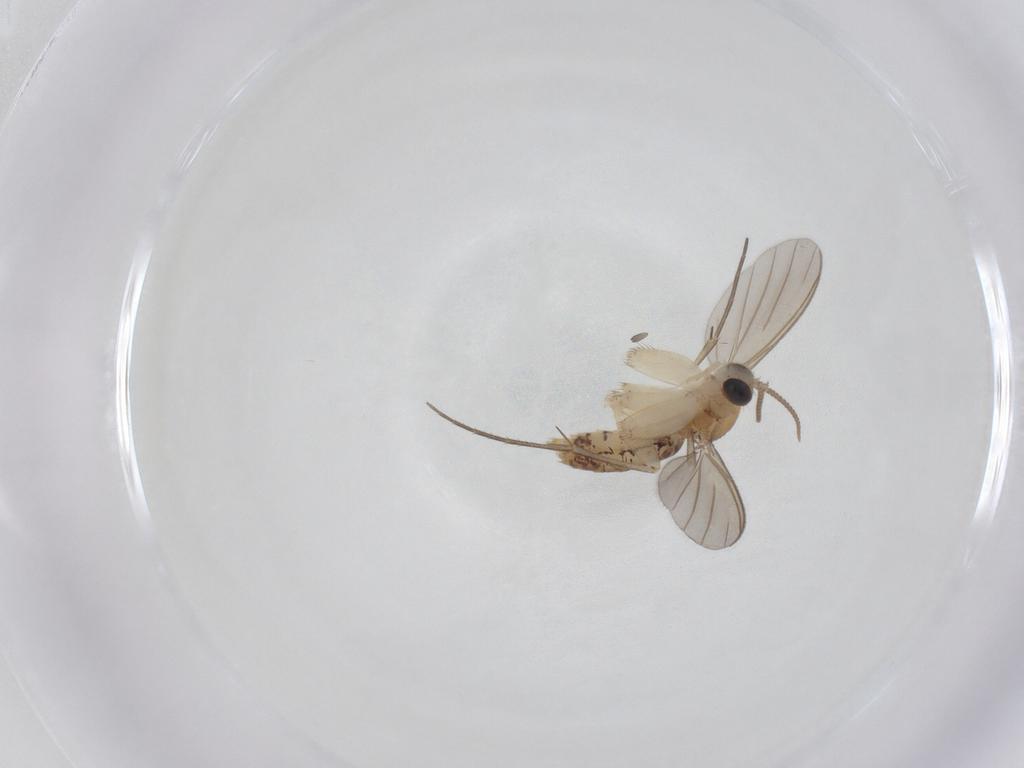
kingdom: Animalia
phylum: Arthropoda
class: Insecta
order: Diptera
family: Mycetophilidae
